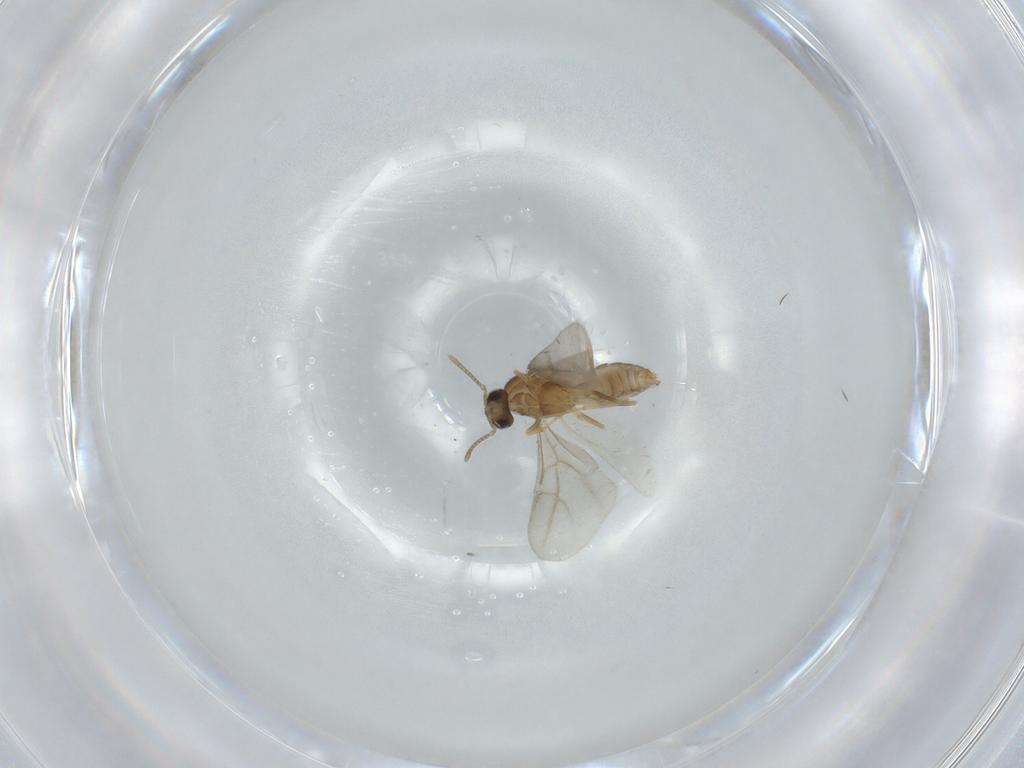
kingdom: Animalia
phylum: Arthropoda
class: Insecta
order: Hymenoptera
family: Formicidae
